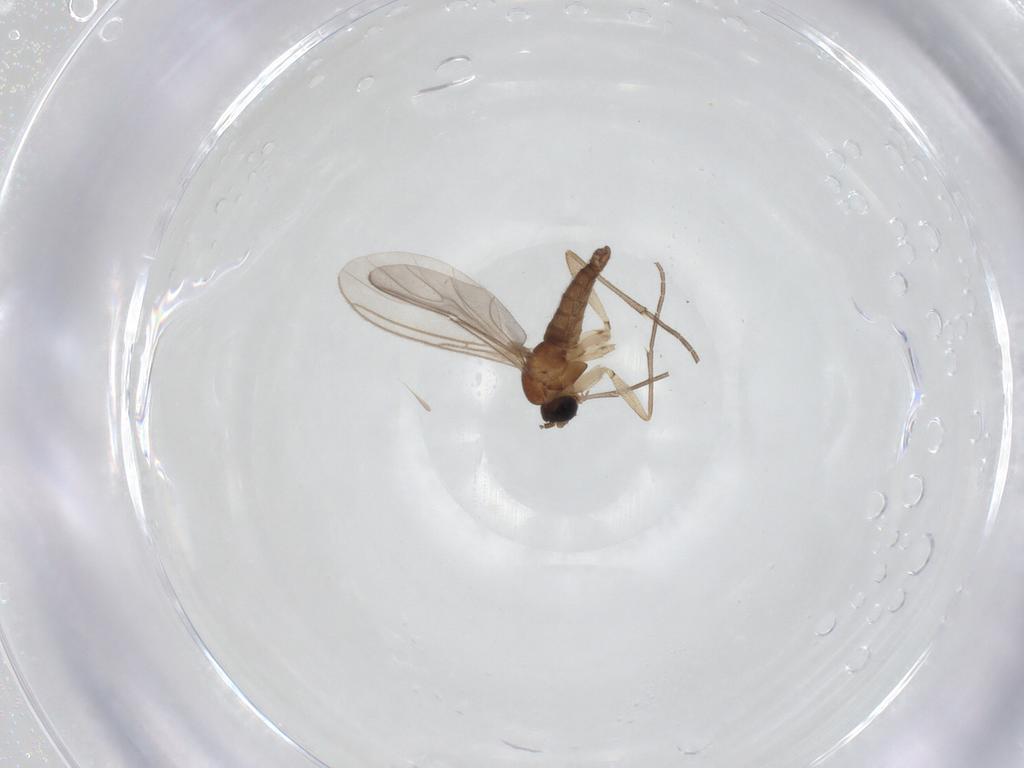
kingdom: Animalia
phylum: Arthropoda
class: Insecta
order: Diptera
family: Sciaridae
